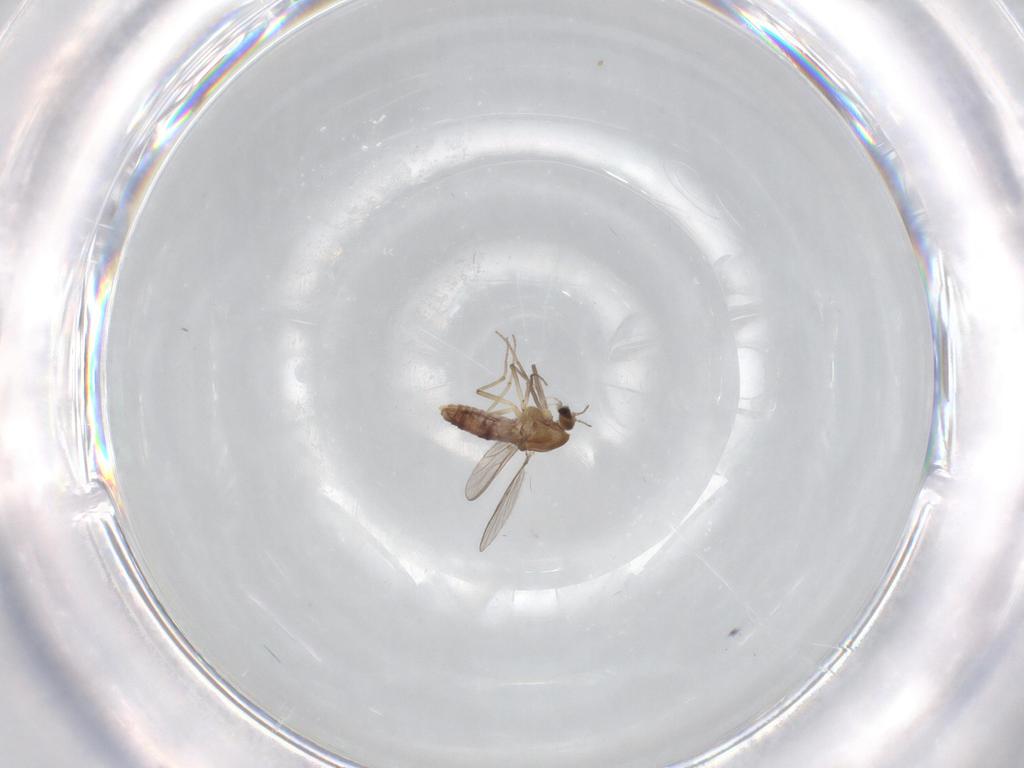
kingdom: Animalia
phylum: Arthropoda
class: Insecta
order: Diptera
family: Chironomidae
